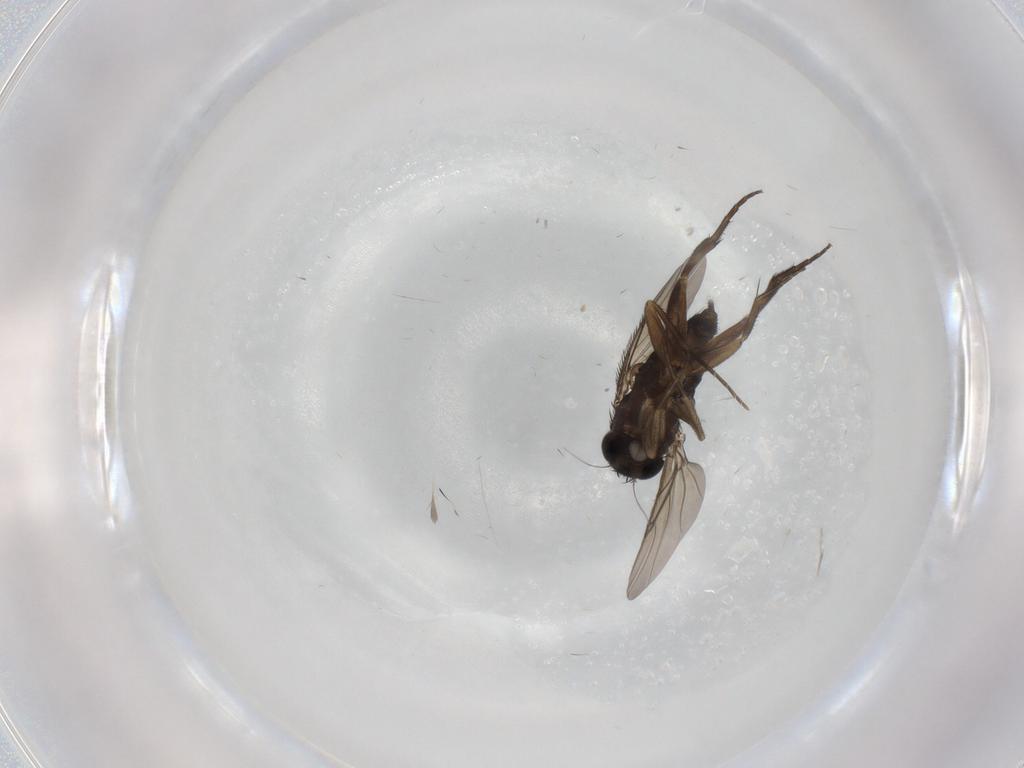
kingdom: Animalia
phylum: Arthropoda
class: Insecta
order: Diptera
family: Phoridae
